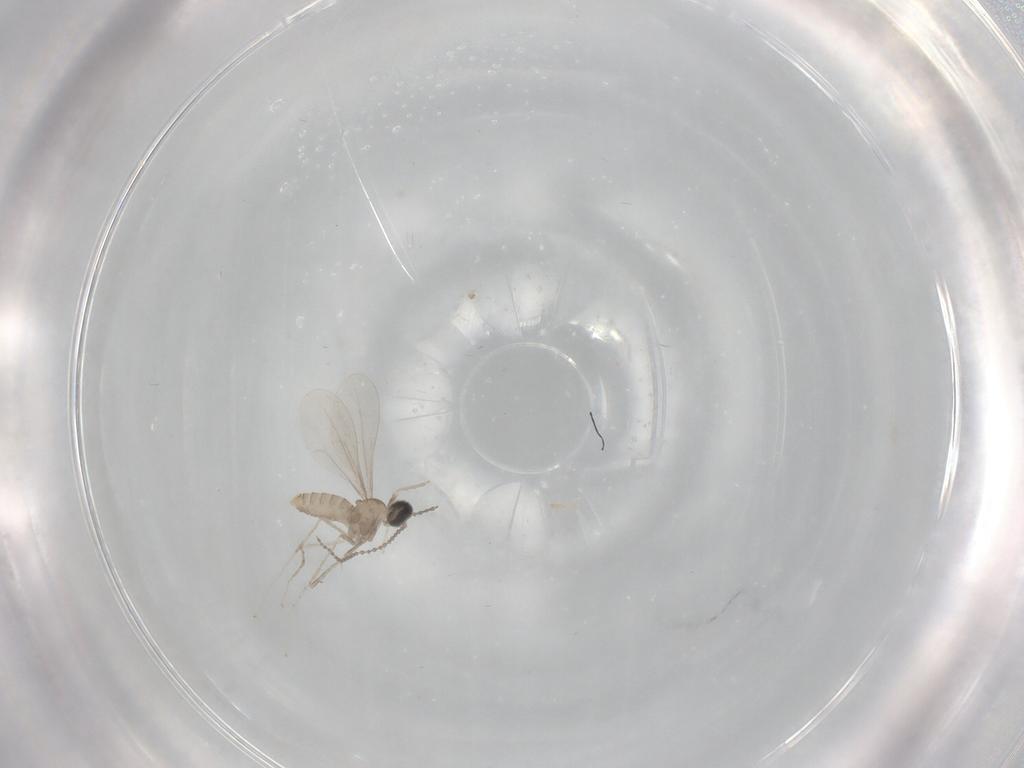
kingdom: Animalia
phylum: Arthropoda
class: Insecta
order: Diptera
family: Cecidomyiidae
